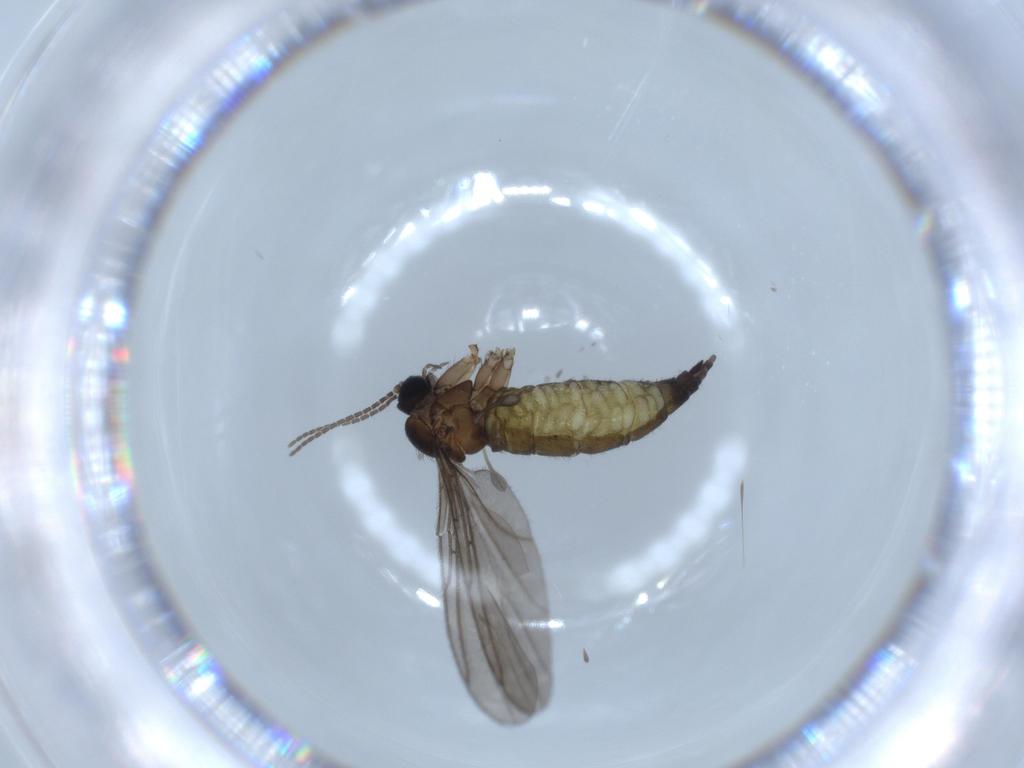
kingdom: Animalia
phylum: Arthropoda
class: Insecta
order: Diptera
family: Sciaridae
